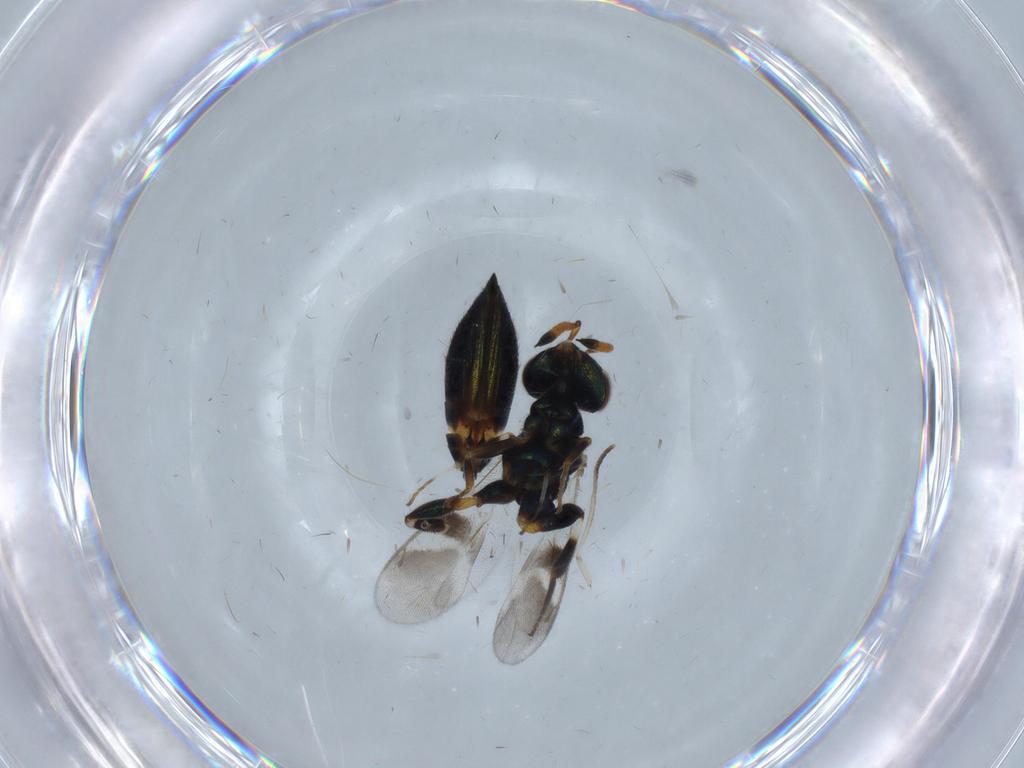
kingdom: Animalia
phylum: Arthropoda
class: Insecta
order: Hymenoptera
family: Cleonyminae
